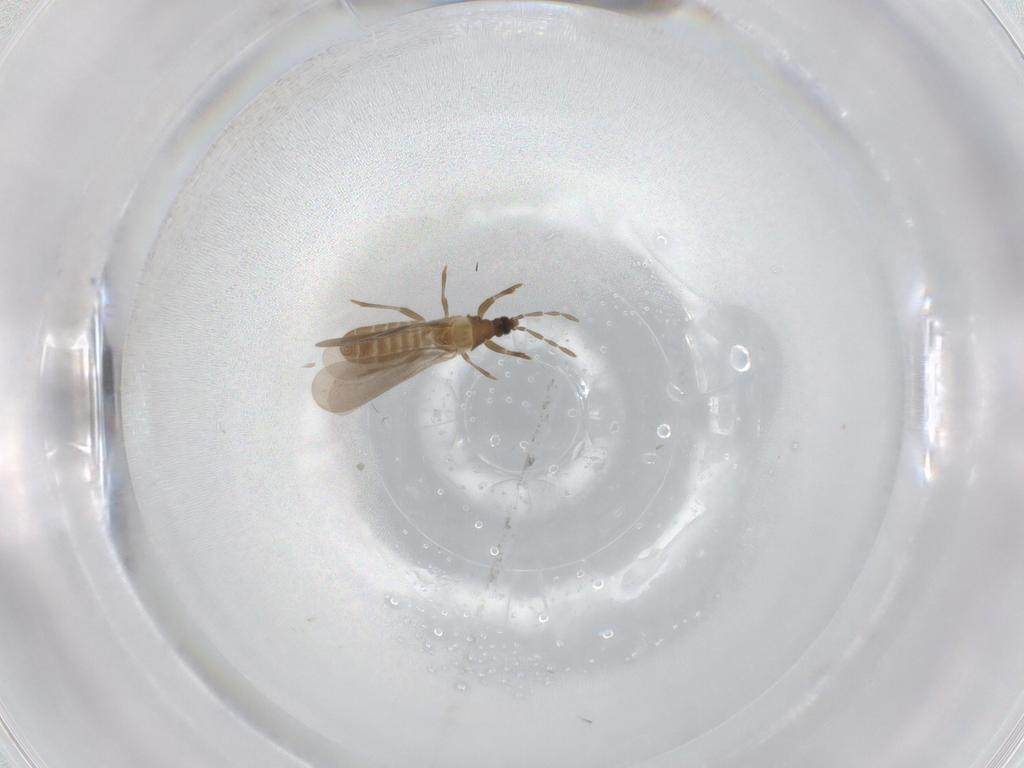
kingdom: Animalia
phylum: Arthropoda
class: Insecta
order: Hemiptera
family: Enicocephalidae
